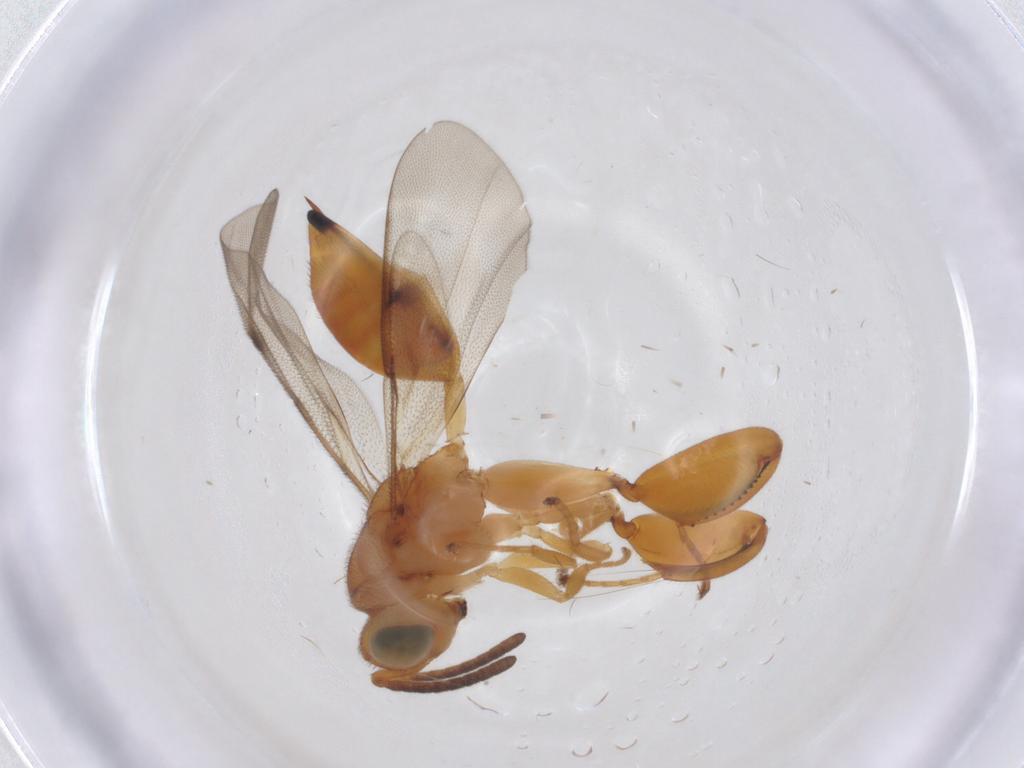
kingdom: Animalia
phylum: Arthropoda
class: Insecta
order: Hymenoptera
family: Chalcididae
